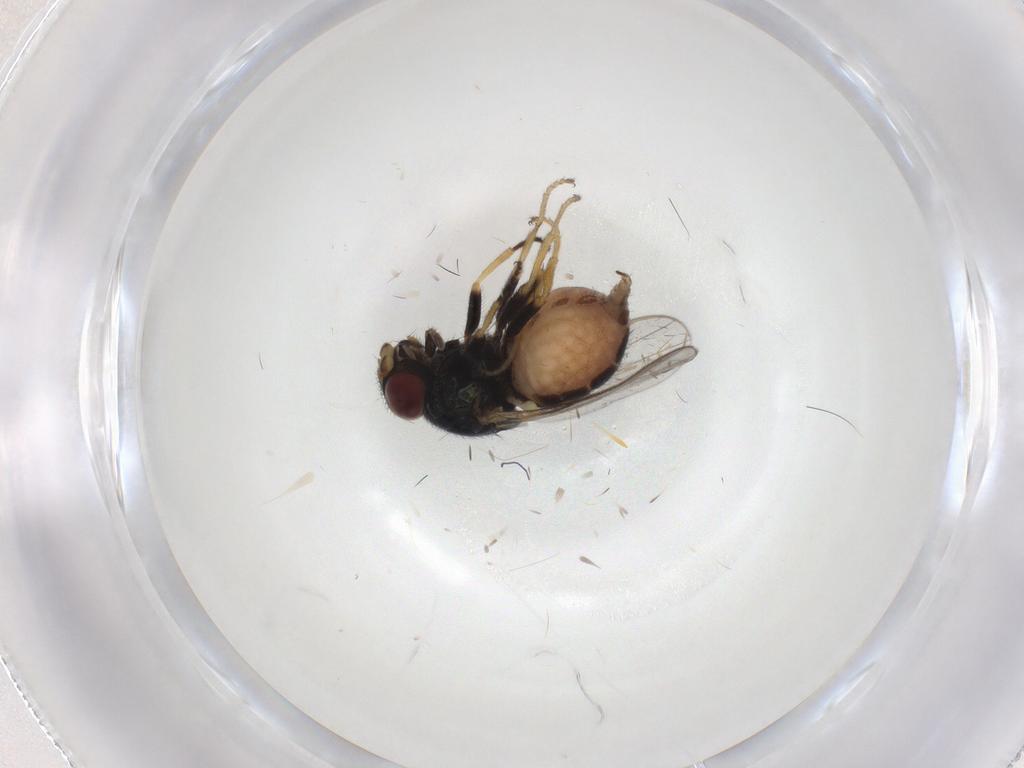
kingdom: Animalia
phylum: Arthropoda
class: Insecta
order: Diptera
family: Chloropidae
